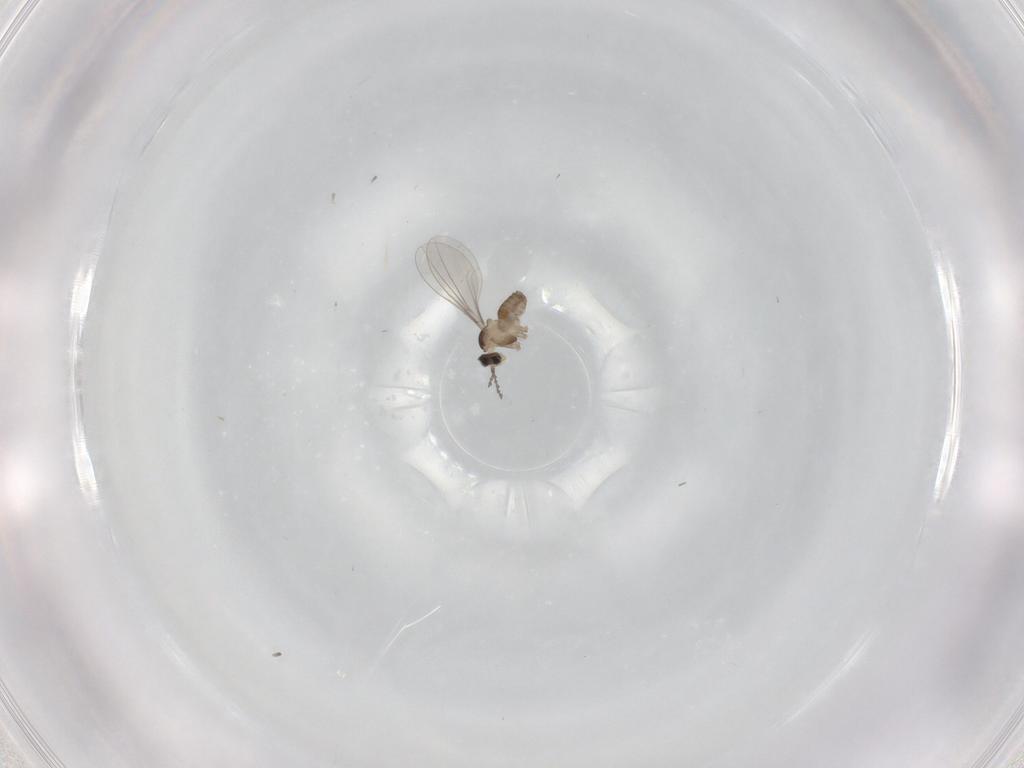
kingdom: Animalia
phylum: Arthropoda
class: Insecta
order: Diptera
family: Cecidomyiidae
